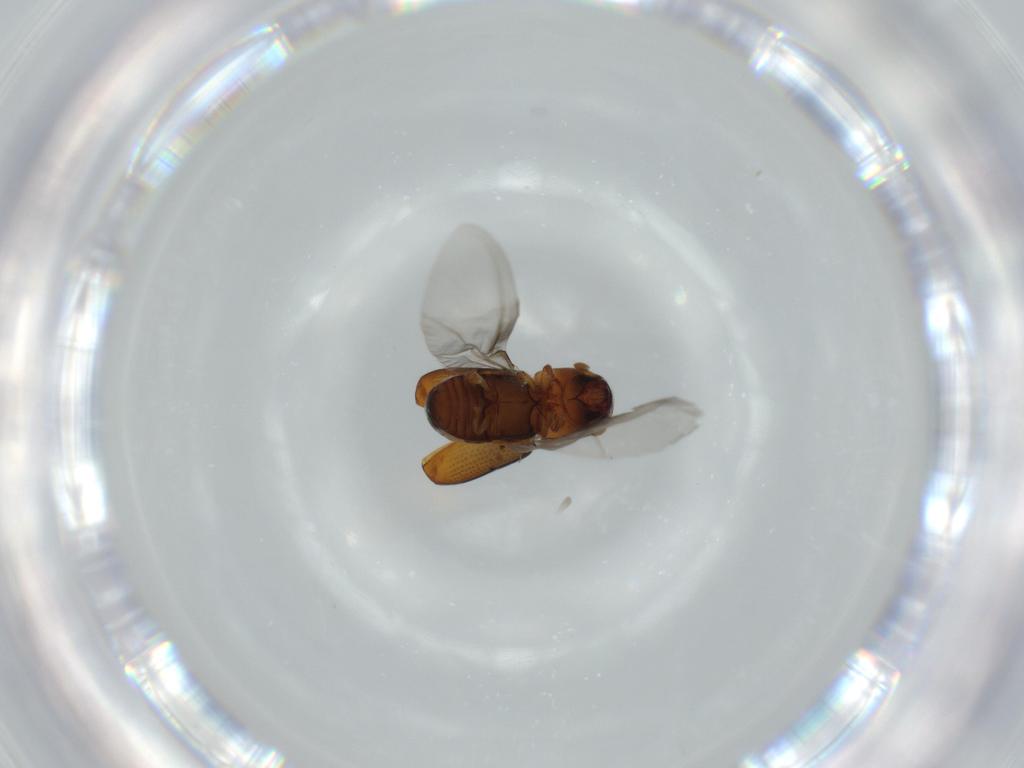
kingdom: Animalia
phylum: Arthropoda
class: Insecta
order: Coleoptera
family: Curculionidae
